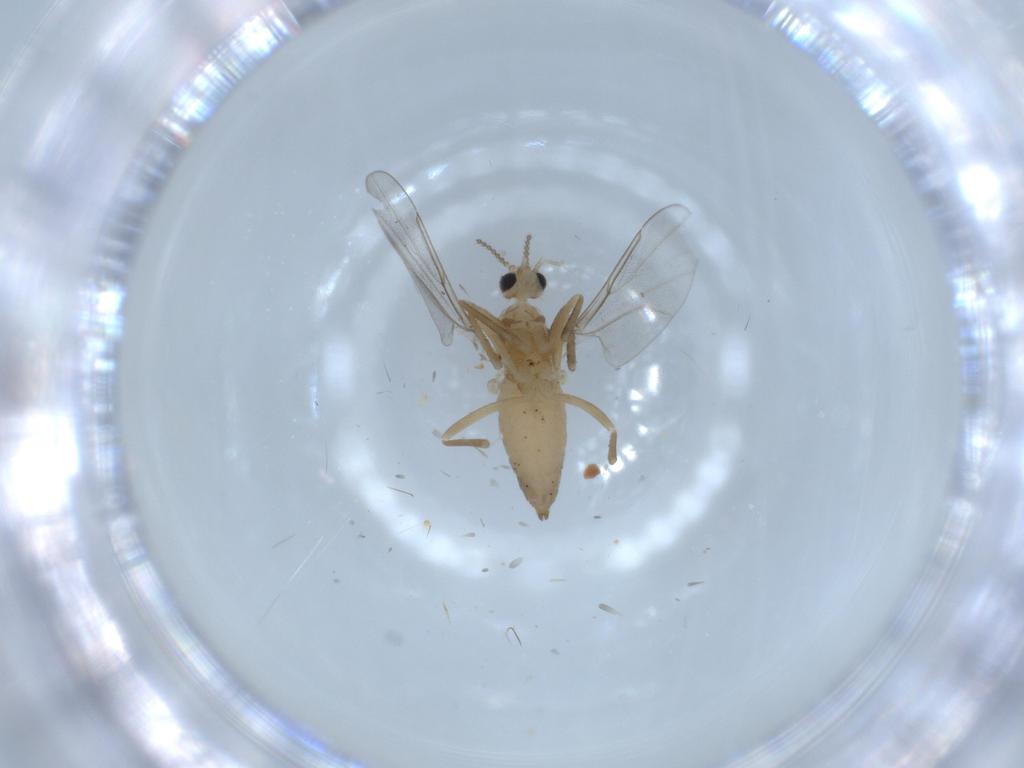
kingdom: Animalia
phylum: Arthropoda
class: Insecta
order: Diptera
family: Cecidomyiidae
